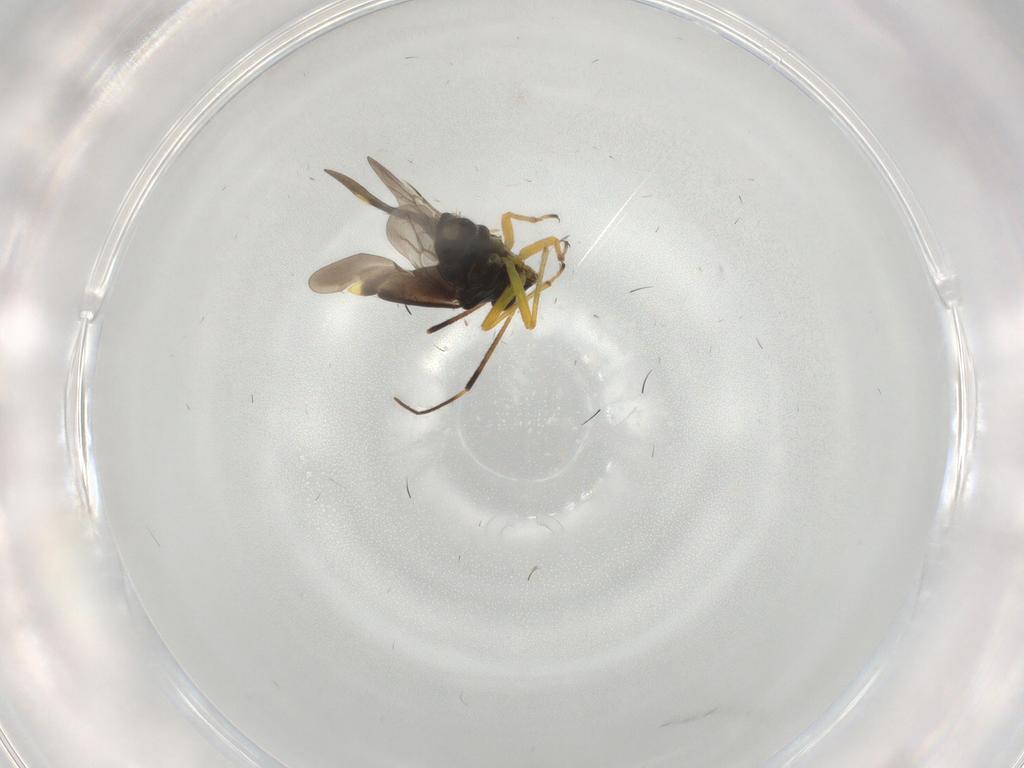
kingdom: Animalia
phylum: Arthropoda
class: Insecta
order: Hemiptera
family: Miridae
